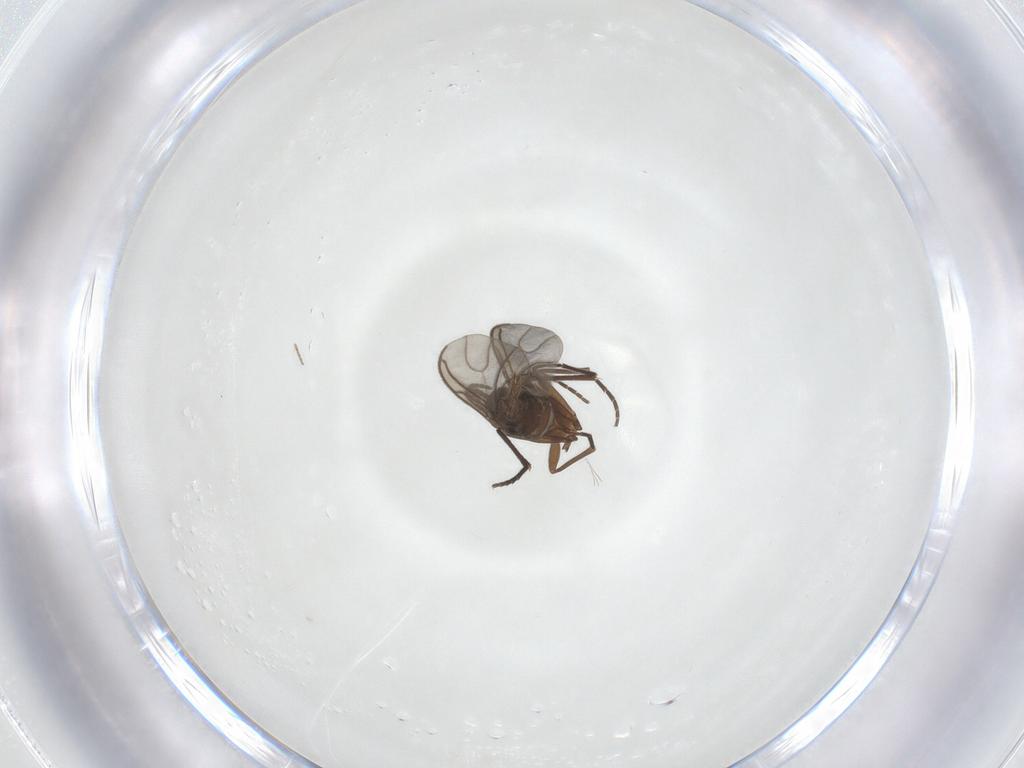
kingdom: Animalia
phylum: Arthropoda
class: Insecta
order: Diptera
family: Sciaridae
